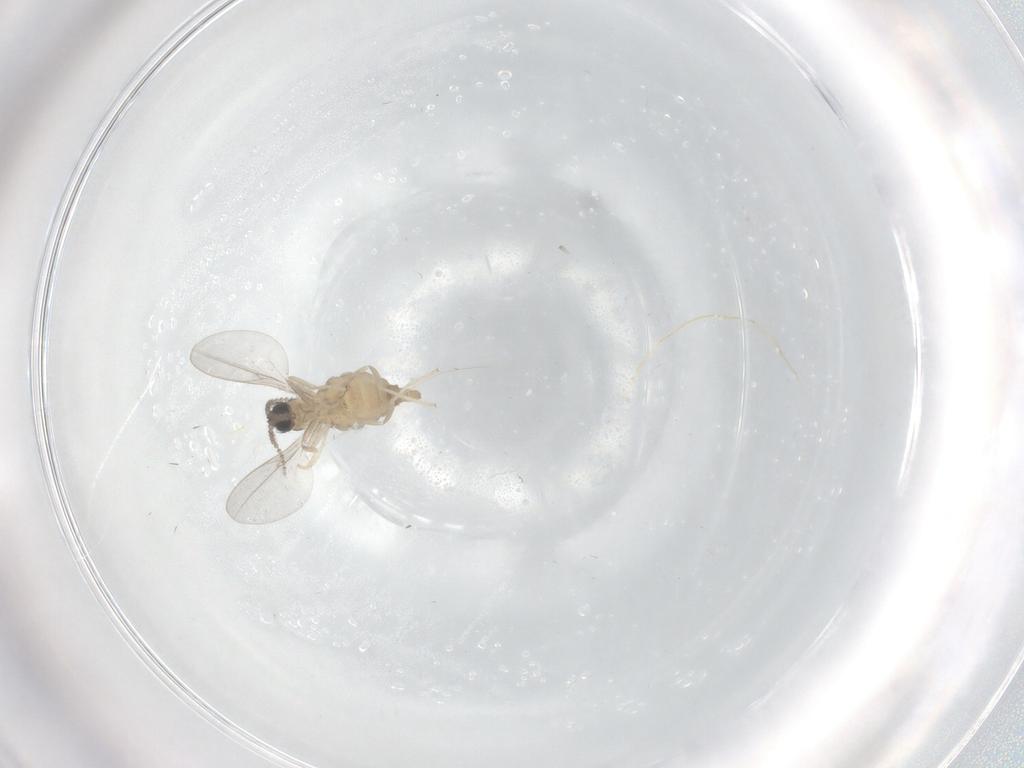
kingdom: Animalia
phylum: Arthropoda
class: Insecta
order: Diptera
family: Cecidomyiidae
